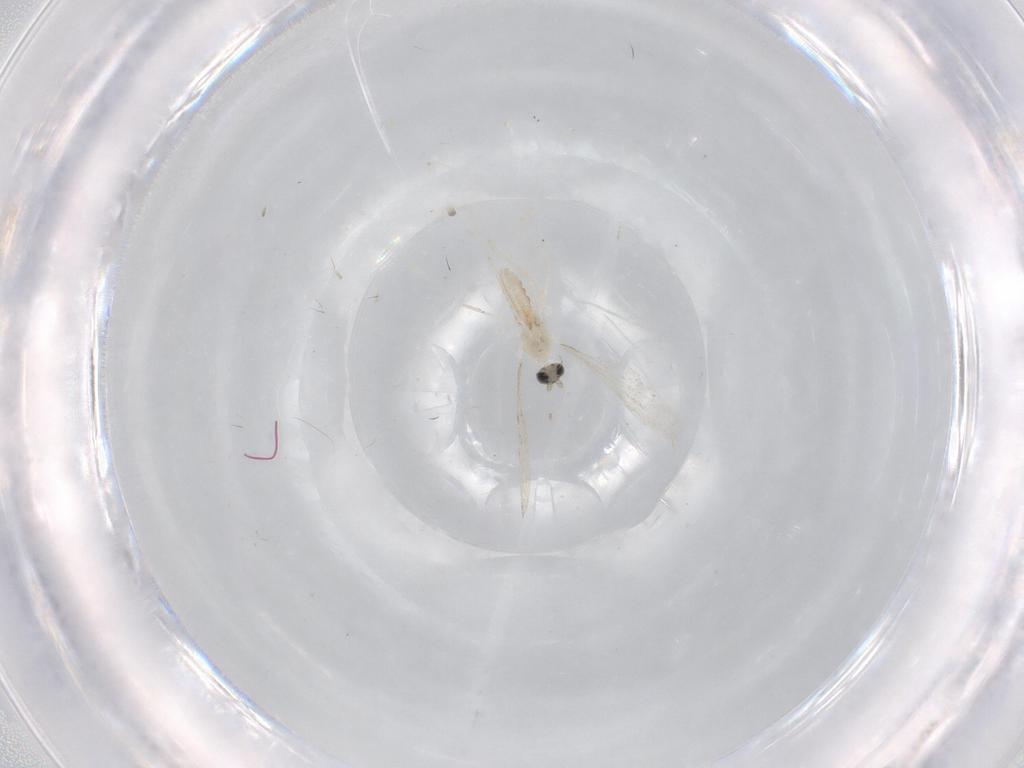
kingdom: Animalia
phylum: Arthropoda
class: Insecta
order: Diptera
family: Cecidomyiidae
